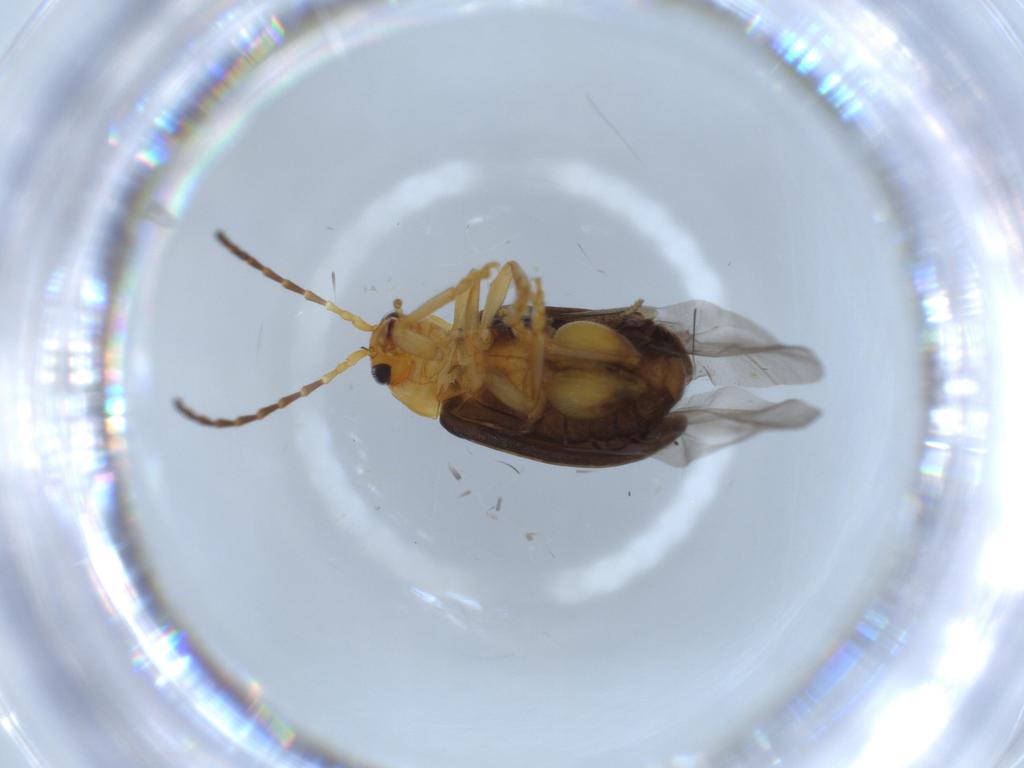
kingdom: Animalia
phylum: Arthropoda
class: Insecta
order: Coleoptera
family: Chrysomelidae
